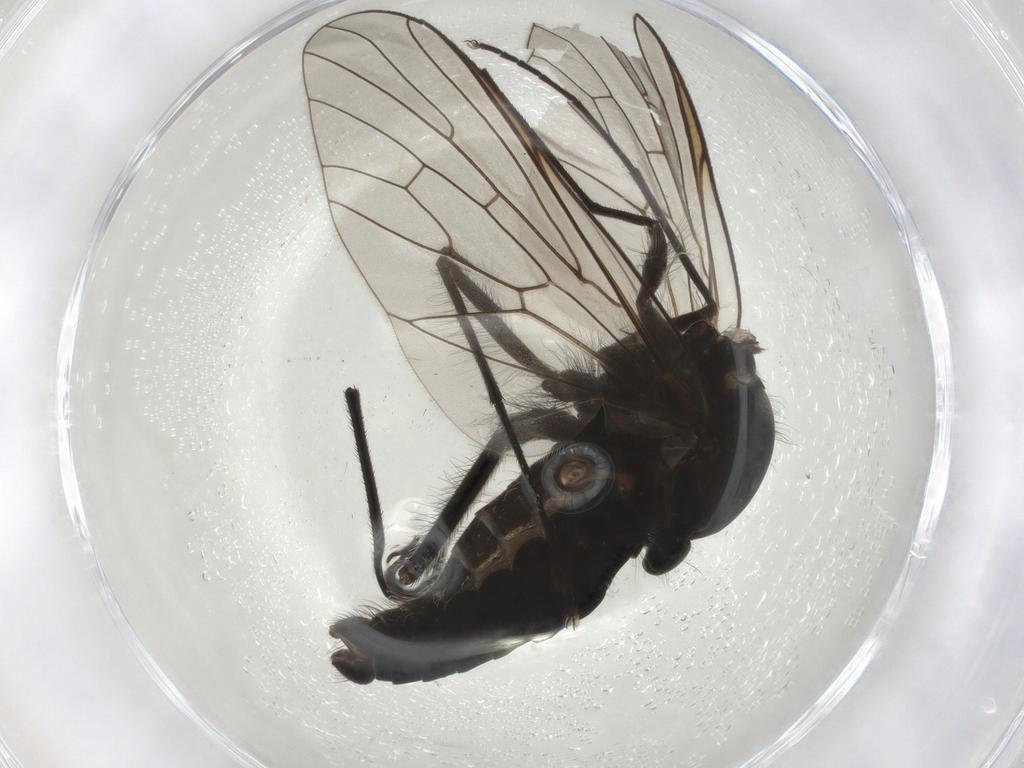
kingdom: Animalia
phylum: Arthropoda
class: Insecta
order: Diptera
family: Bombyliidae
